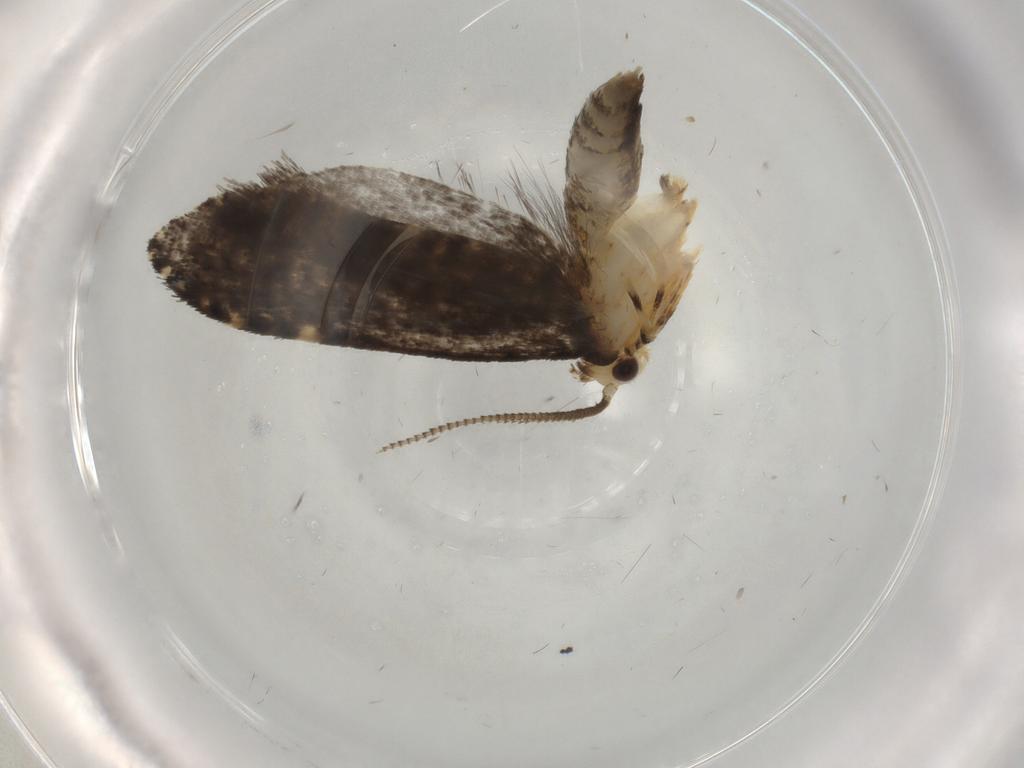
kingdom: Animalia
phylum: Arthropoda
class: Insecta
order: Lepidoptera
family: Tineidae
